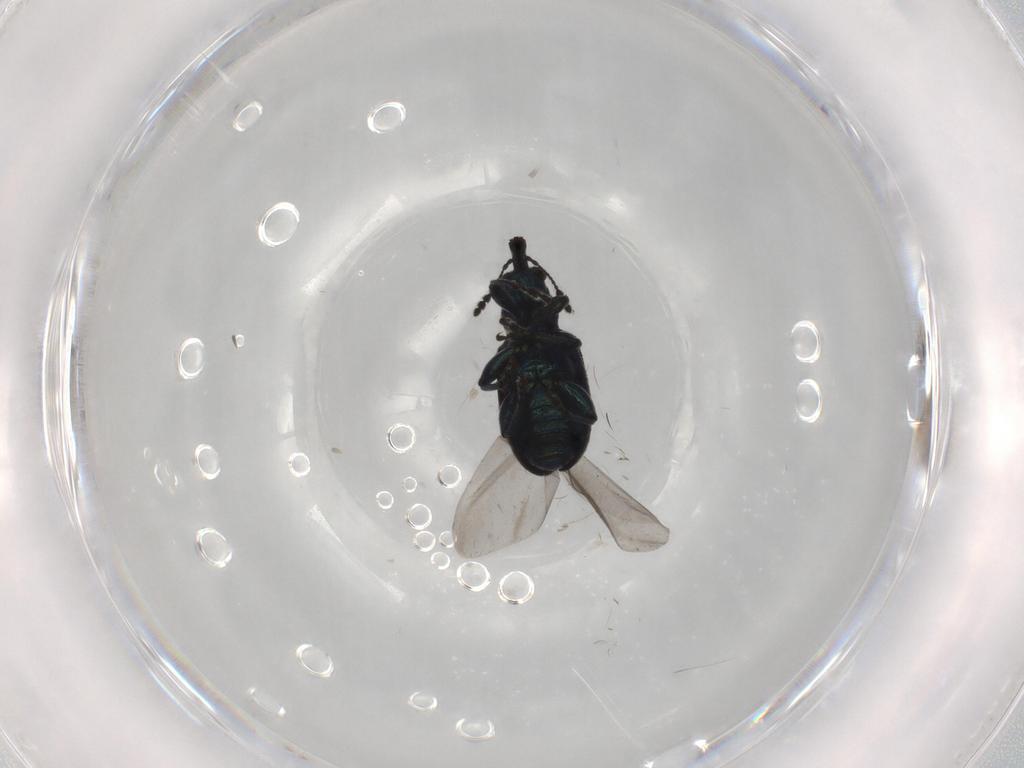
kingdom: Animalia
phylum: Arthropoda
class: Insecta
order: Coleoptera
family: Attelabidae
